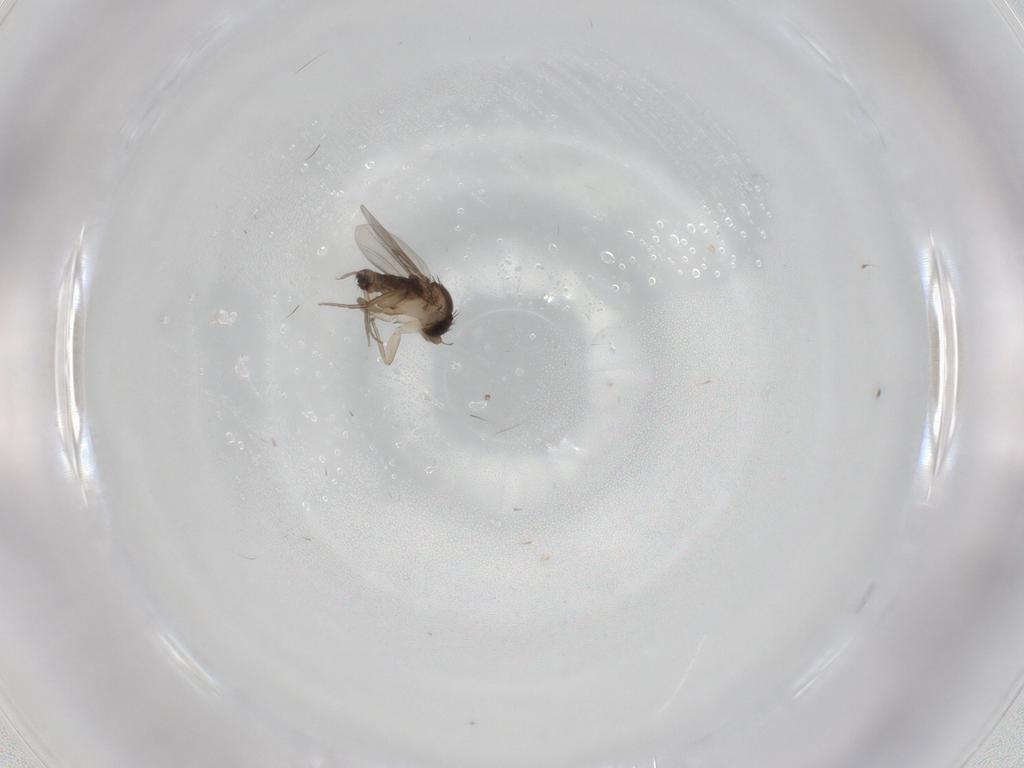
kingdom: Animalia
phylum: Arthropoda
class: Insecta
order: Diptera
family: Phoridae
